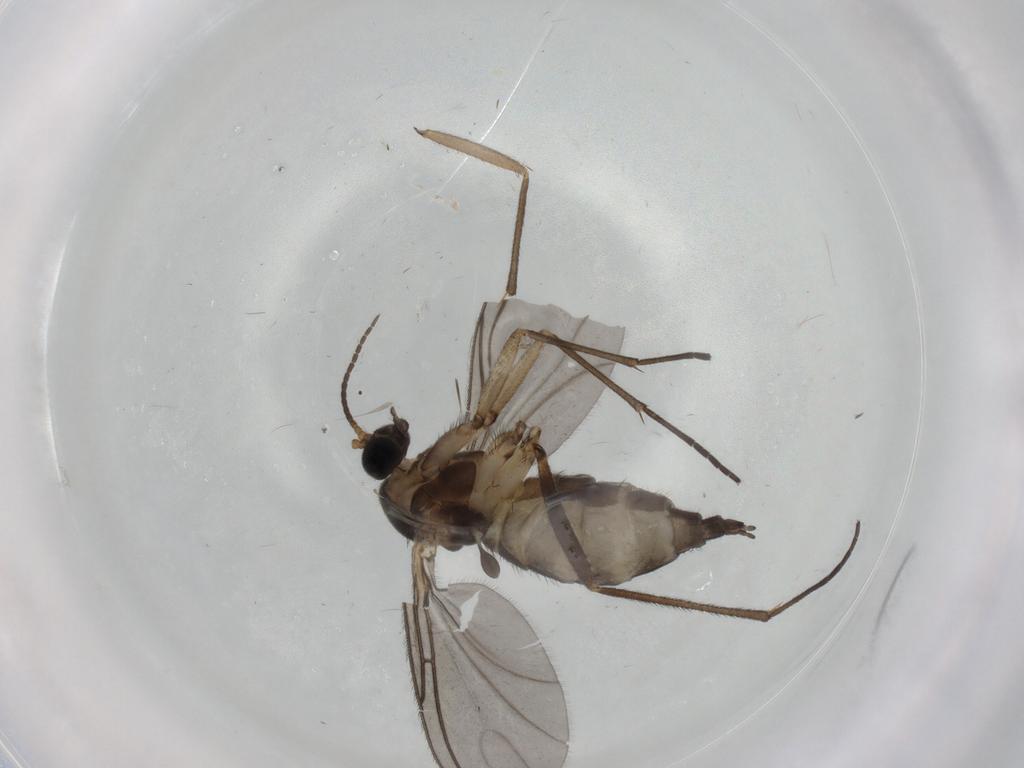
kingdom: Animalia
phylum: Arthropoda
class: Insecta
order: Diptera
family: Sciaridae
